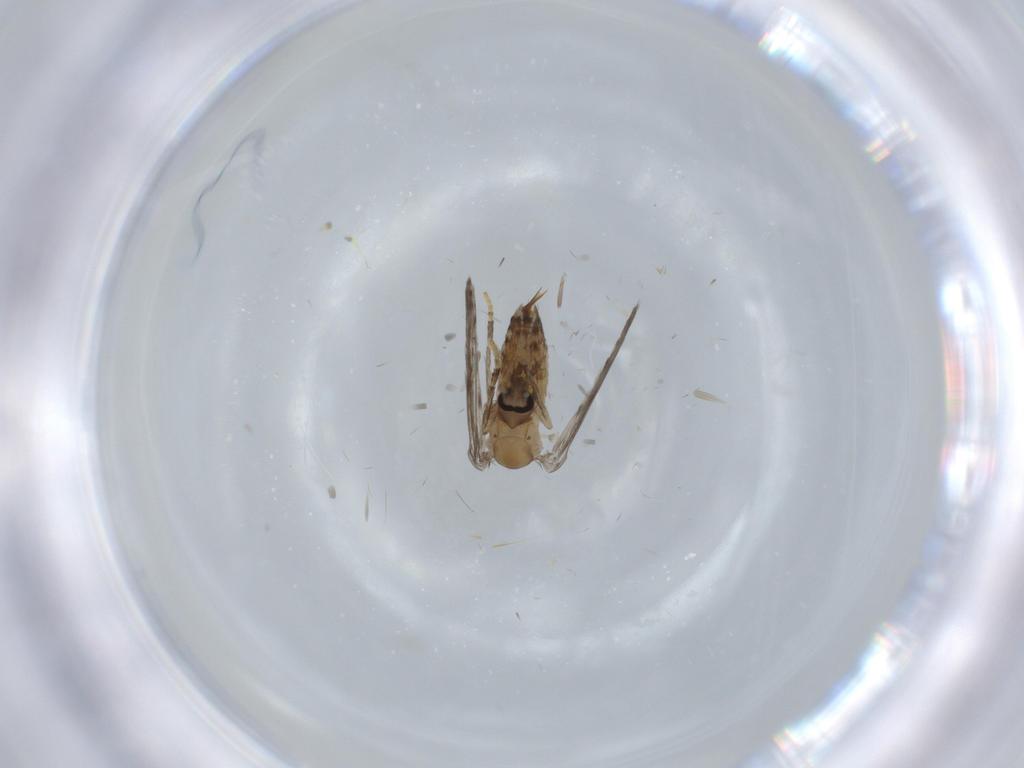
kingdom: Animalia
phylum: Arthropoda
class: Insecta
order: Diptera
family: Psychodidae
